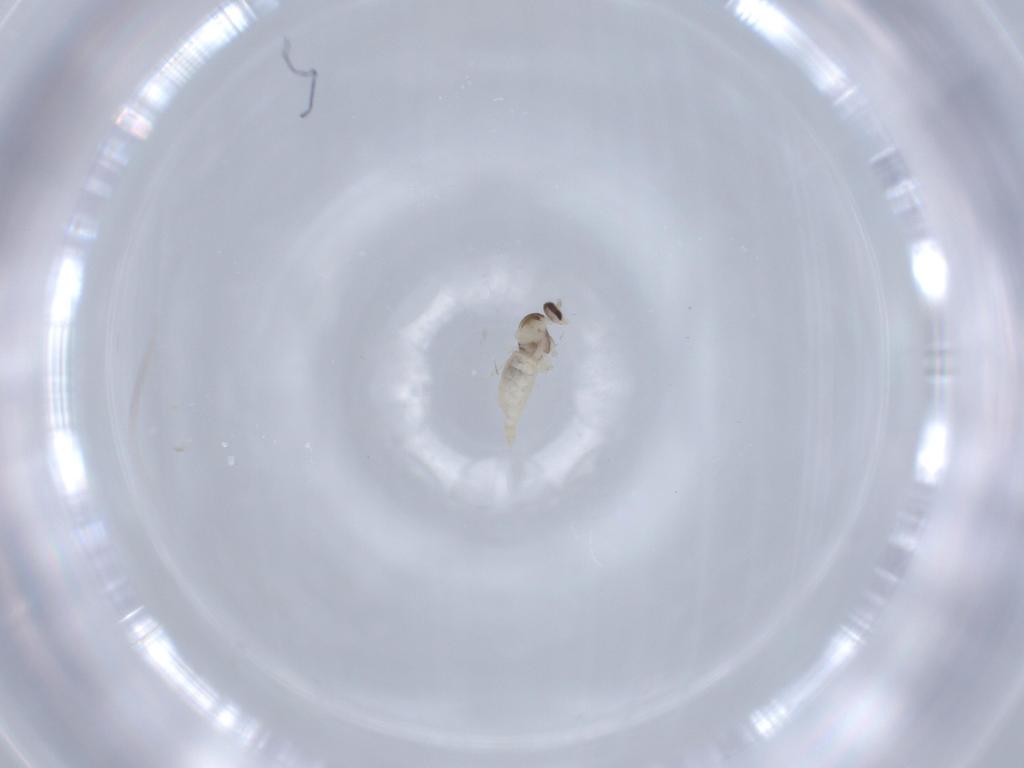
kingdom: Animalia
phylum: Arthropoda
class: Insecta
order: Diptera
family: Cecidomyiidae
